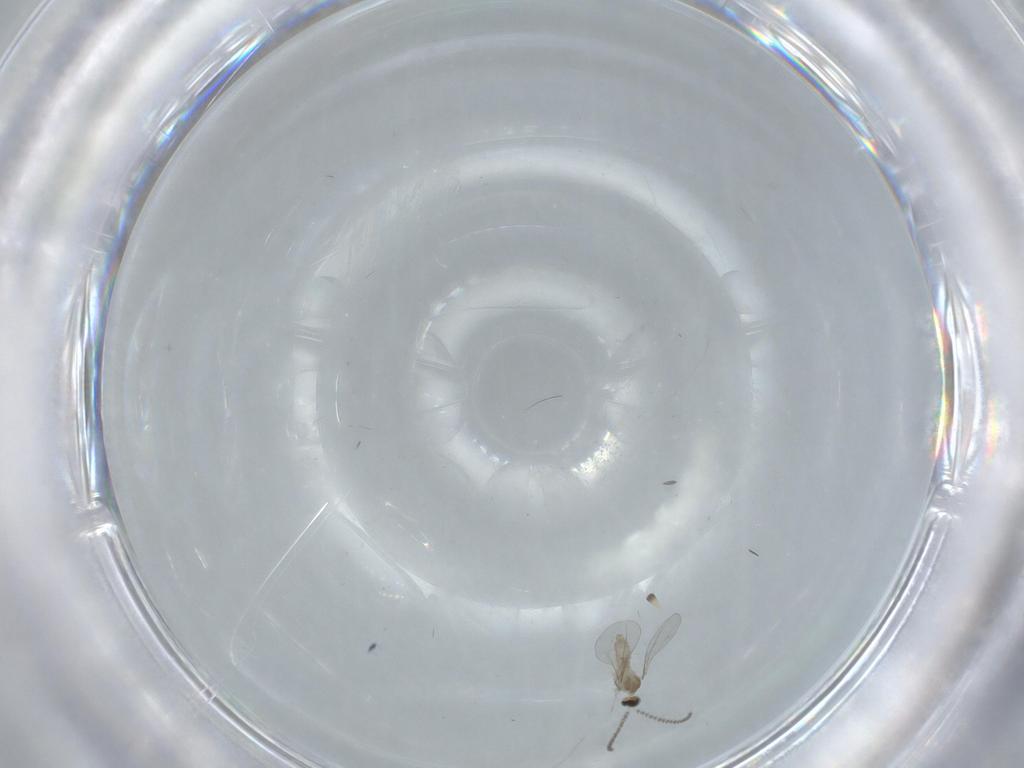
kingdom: Animalia
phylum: Arthropoda
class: Insecta
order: Diptera
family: Cecidomyiidae
